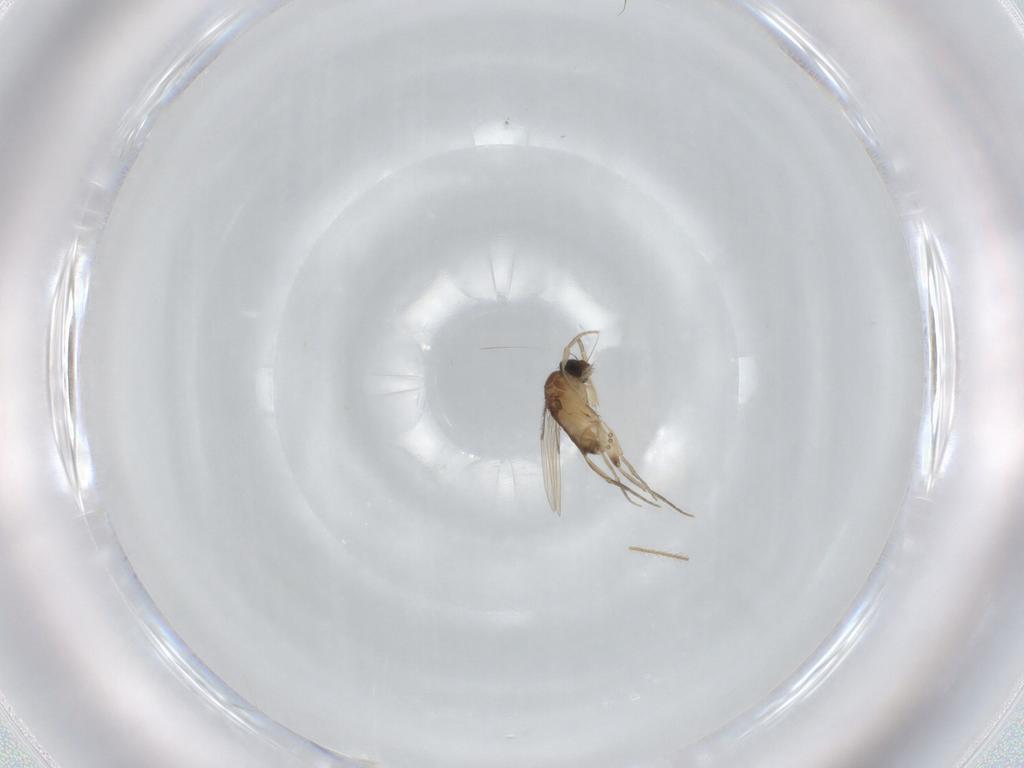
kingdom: Animalia
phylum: Arthropoda
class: Insecta
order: Diptera
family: Phoridae
